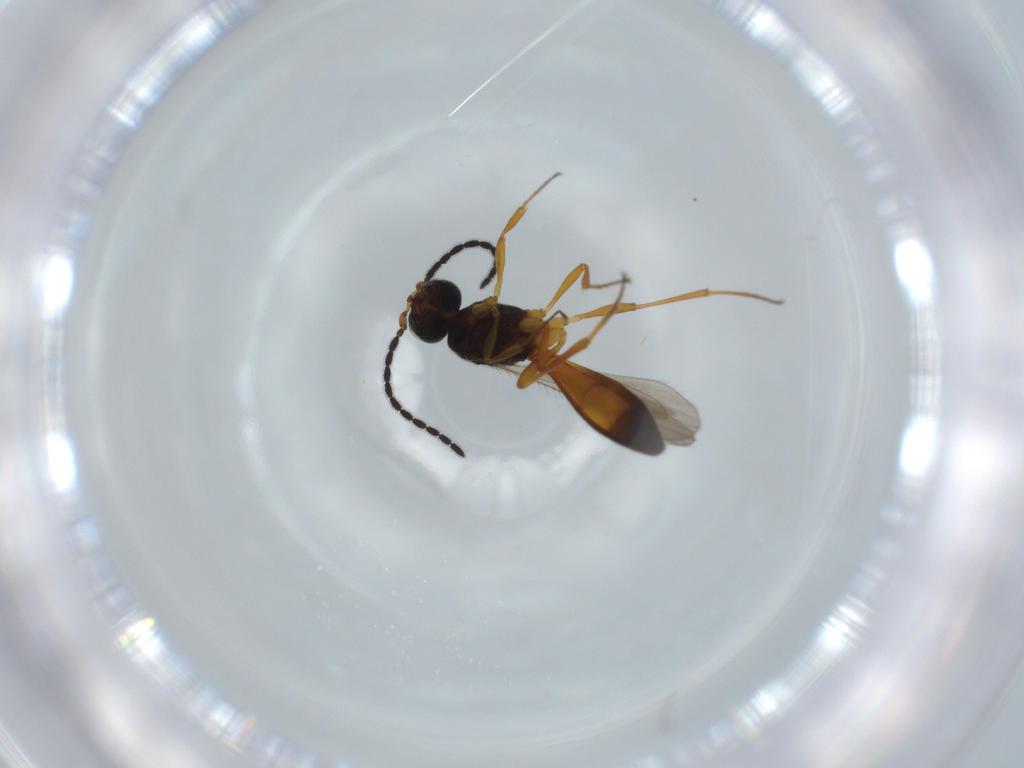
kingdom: Animalia
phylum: Arthropoda
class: Insecta
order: Hymenoptera
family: Scelionidae
